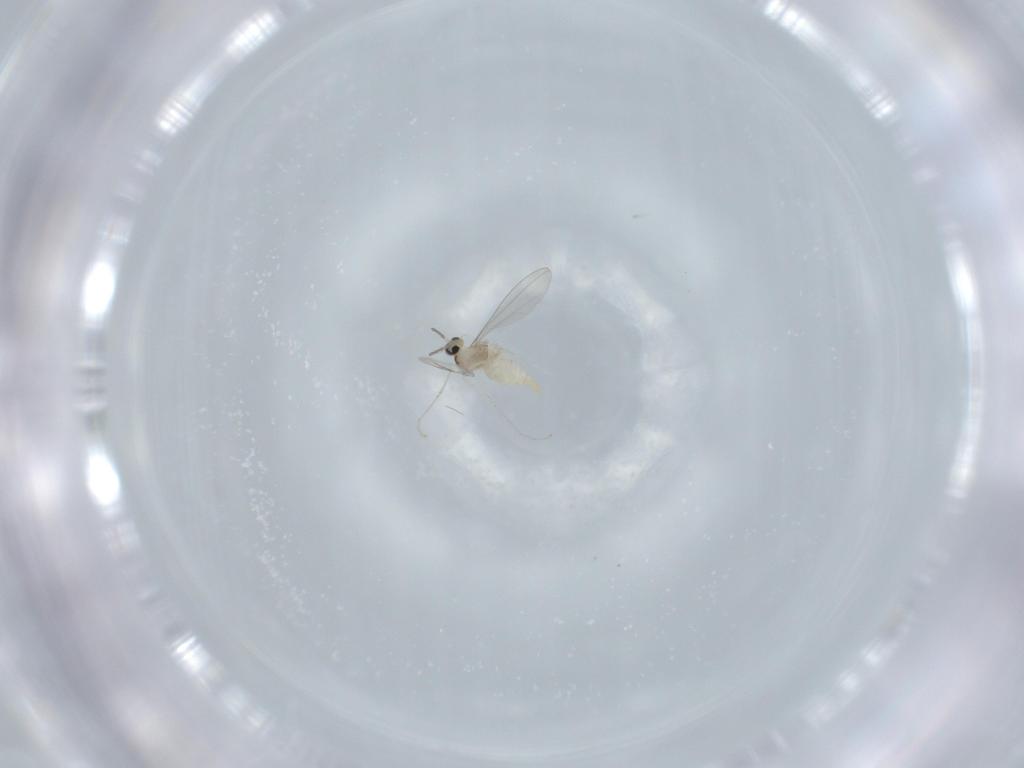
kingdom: Animalia
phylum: Arthropoda
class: Insecta
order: Diptera
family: Cecidomyiidae
